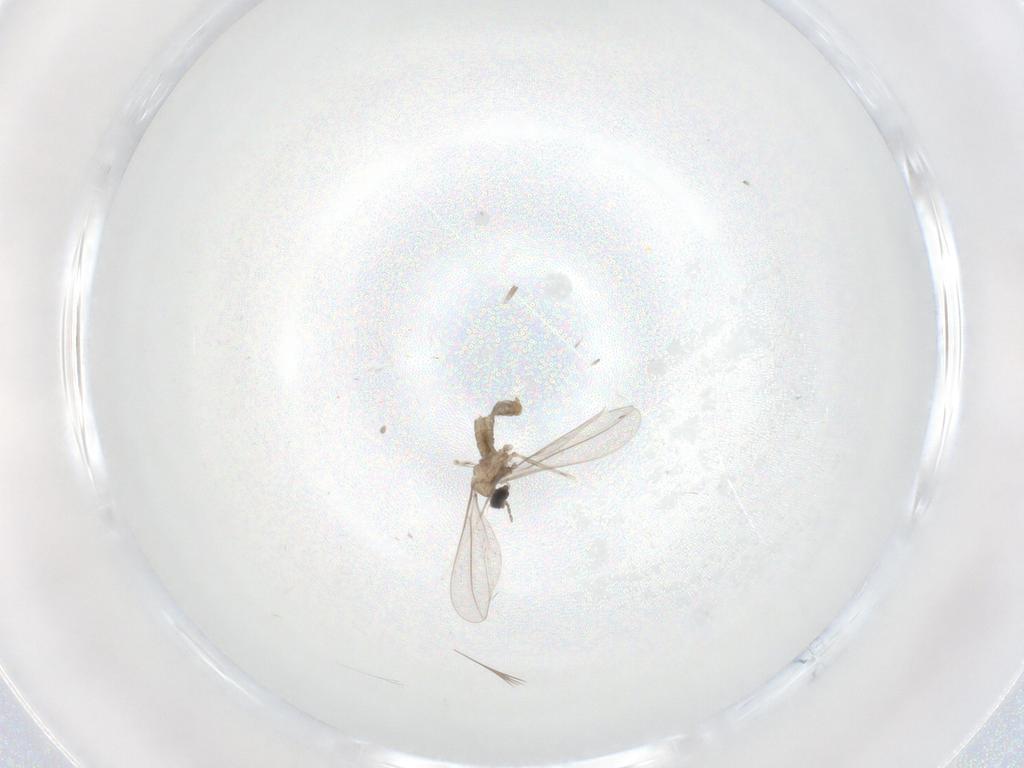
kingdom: Animalia
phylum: Arthropoda
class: Insecta
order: Diptera
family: Cecidomyiidae
